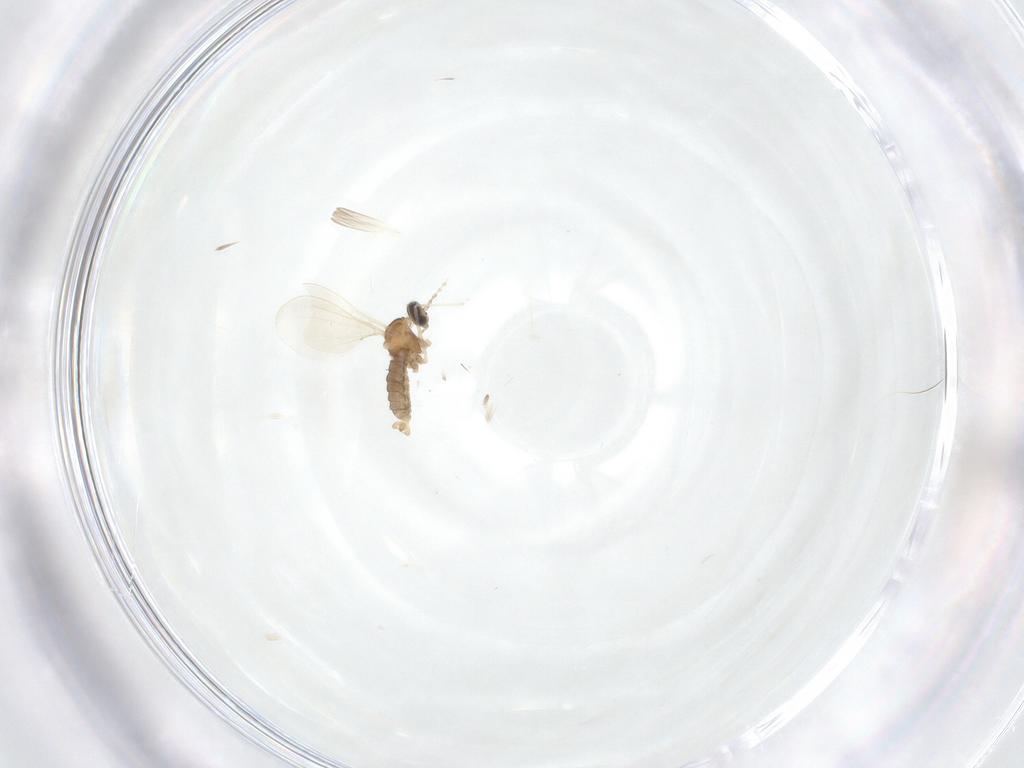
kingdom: Animalia
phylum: Arthropoda
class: Insecta
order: Diptera
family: Cecidomyiidae
